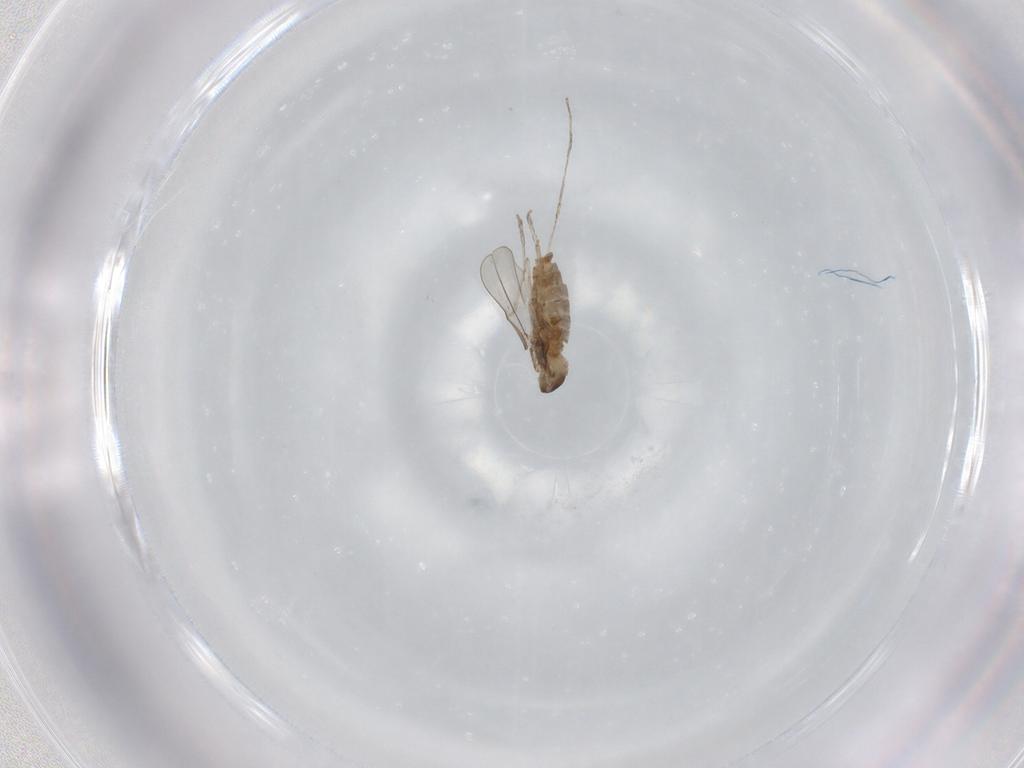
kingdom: Animalia
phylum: Arthropoda
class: Insecta
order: Diptera
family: Cecidomyiidae
